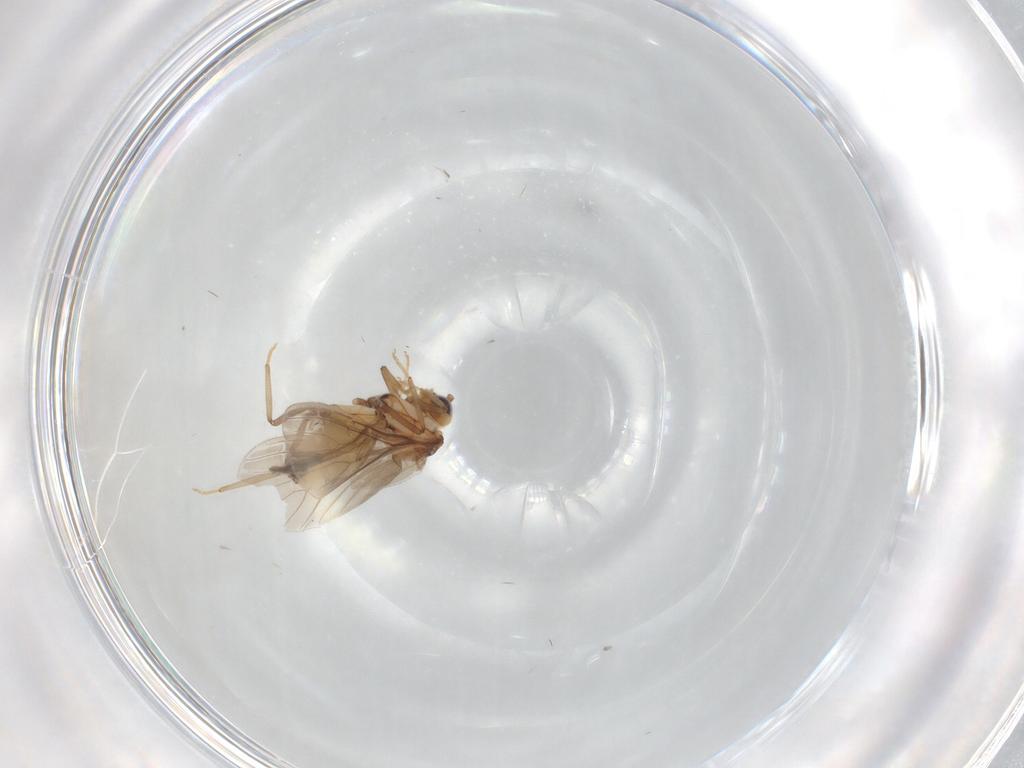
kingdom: Animalia
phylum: Arthropoda
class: Insecta
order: Neuroptera
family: Coniopterygidae
